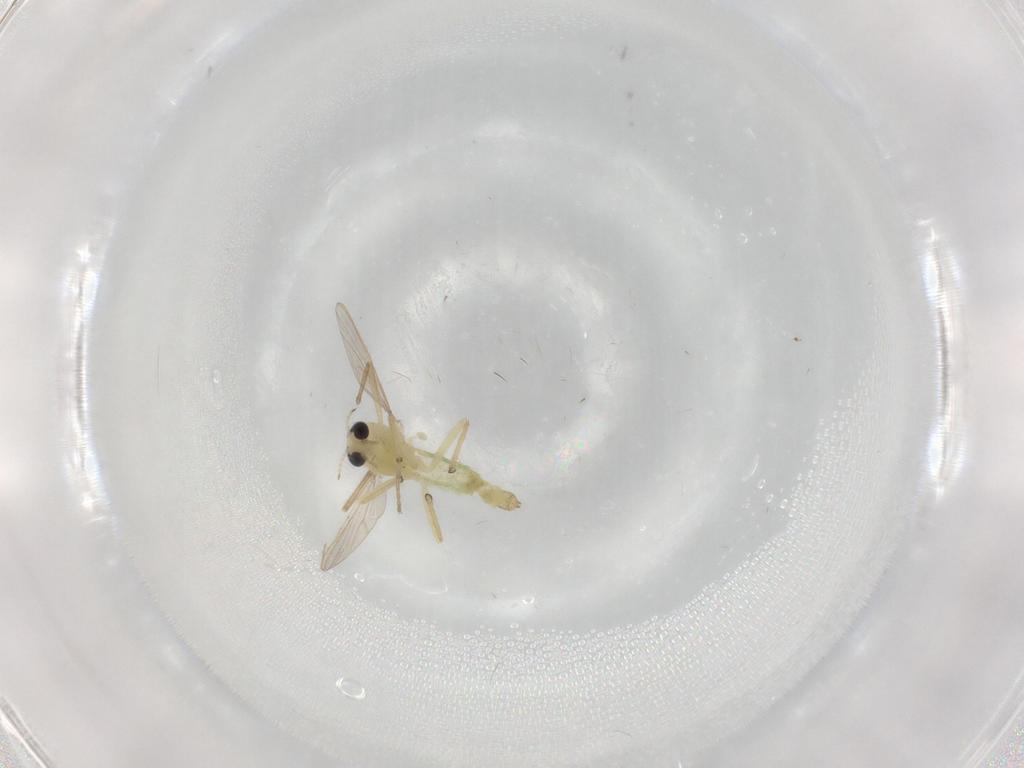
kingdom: Animalia
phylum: Arthropoda
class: Insecta
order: Diptera
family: Chironomidae
